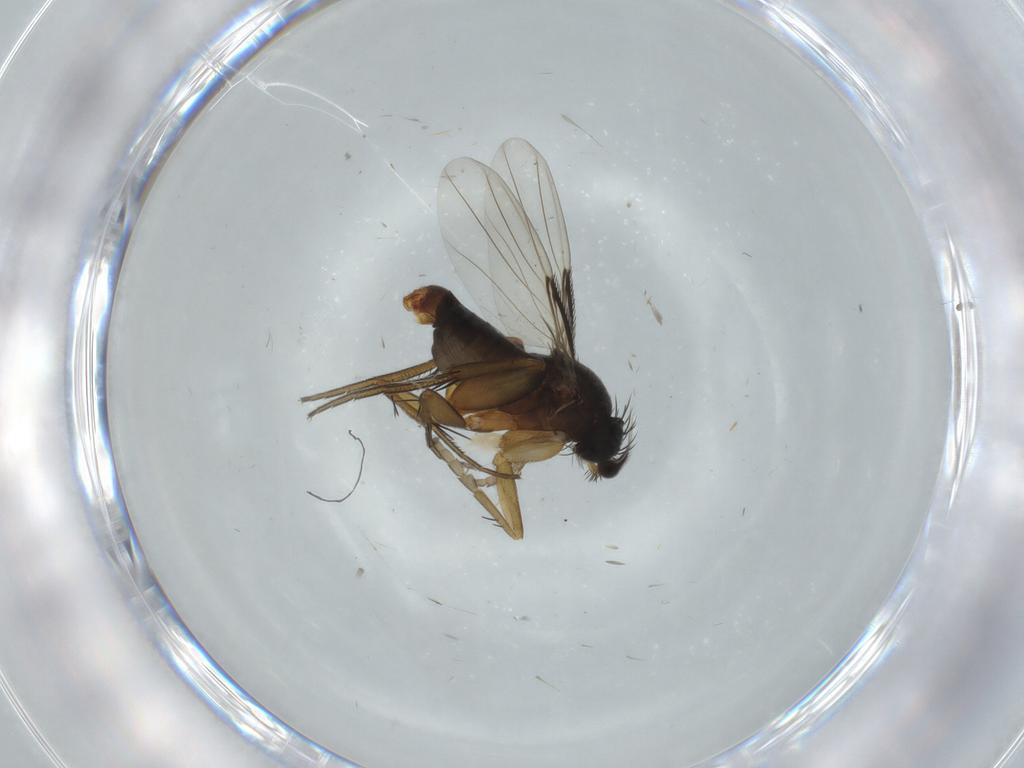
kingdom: Animalia
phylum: Arthropoda
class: Insecta
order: Diptera
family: Phoridae
